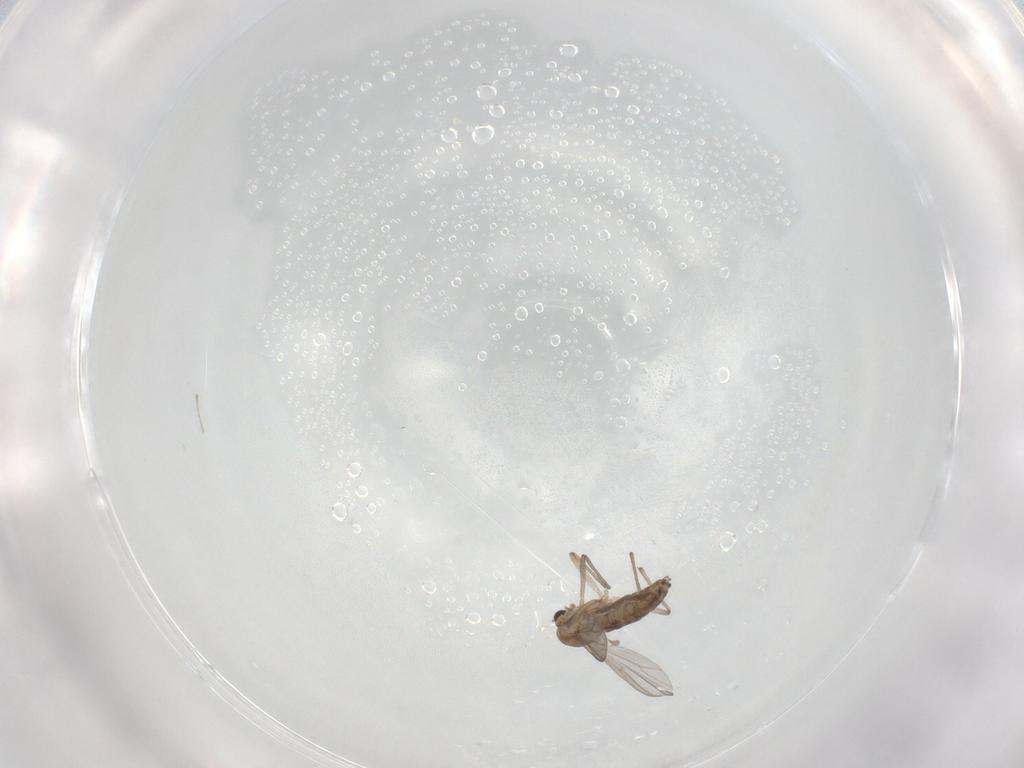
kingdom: Animalia
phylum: Arthropoda
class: Insecta
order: Diptera
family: Chironomidae
